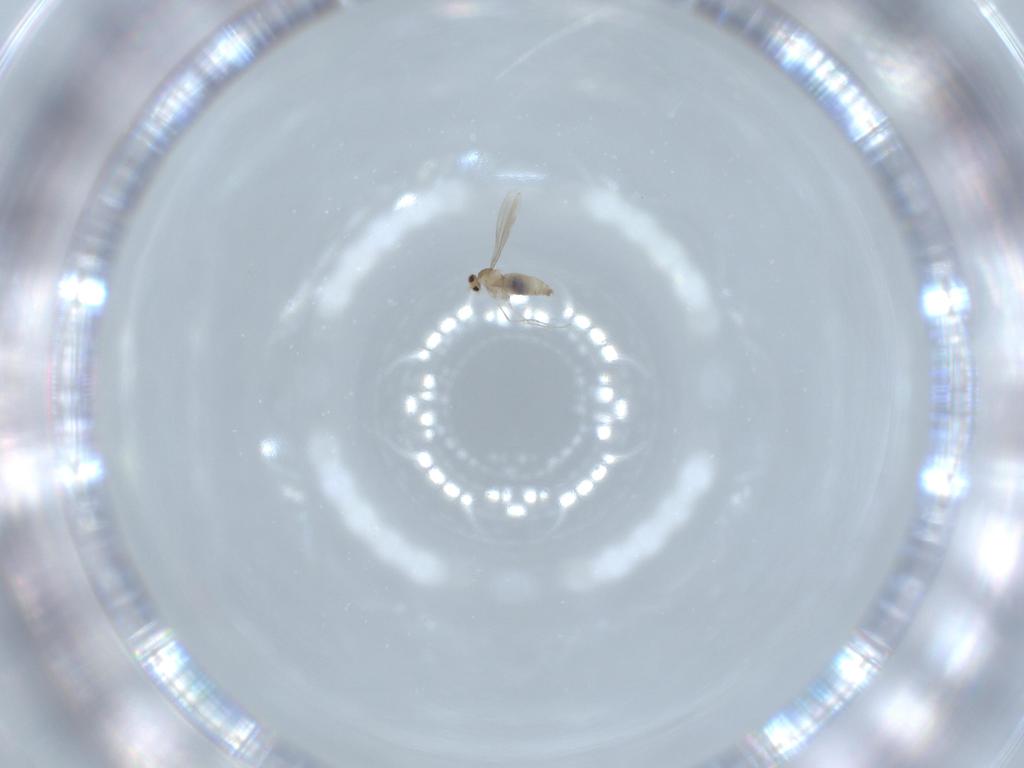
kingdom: Animalia
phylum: Arthropoda
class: Insecta
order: Diptera
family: Cecidomyiidae
